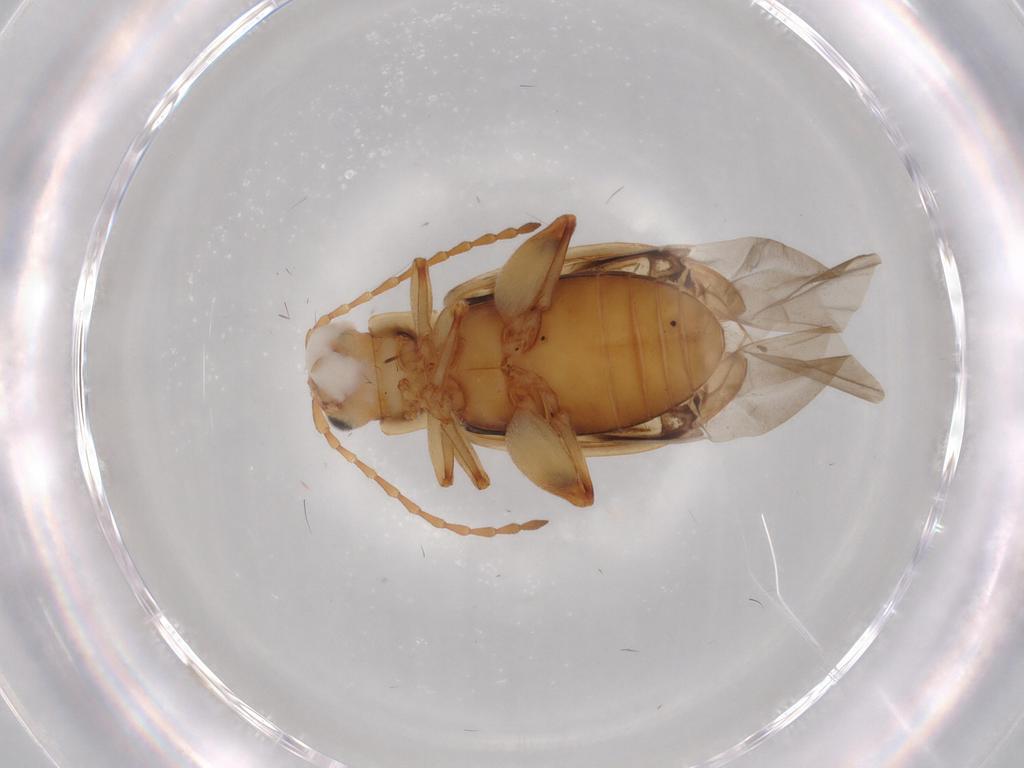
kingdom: Animalia
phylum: Arthropoda
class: Insecta
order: Coleoptera
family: Chrysomelidae
